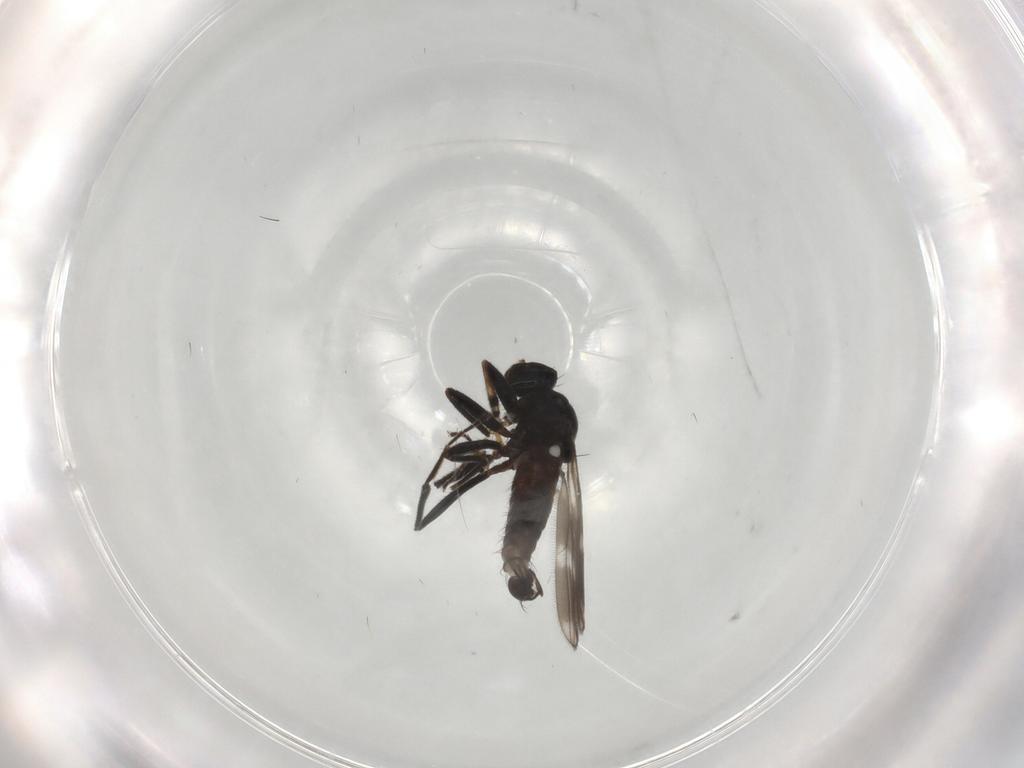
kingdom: Animalia
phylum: Arthropoda
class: Insecta
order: Diptera
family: Hybotidae
